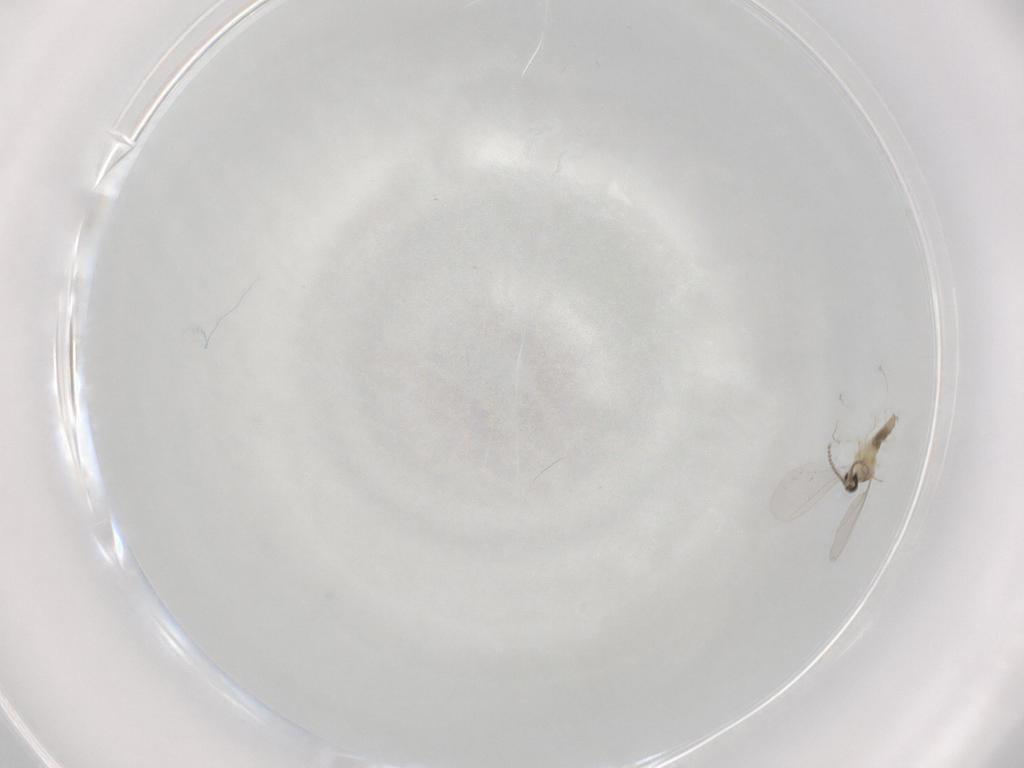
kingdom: Animalia
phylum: Arthropoda
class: Insecta
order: Diptera
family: Cecidomyiidae
